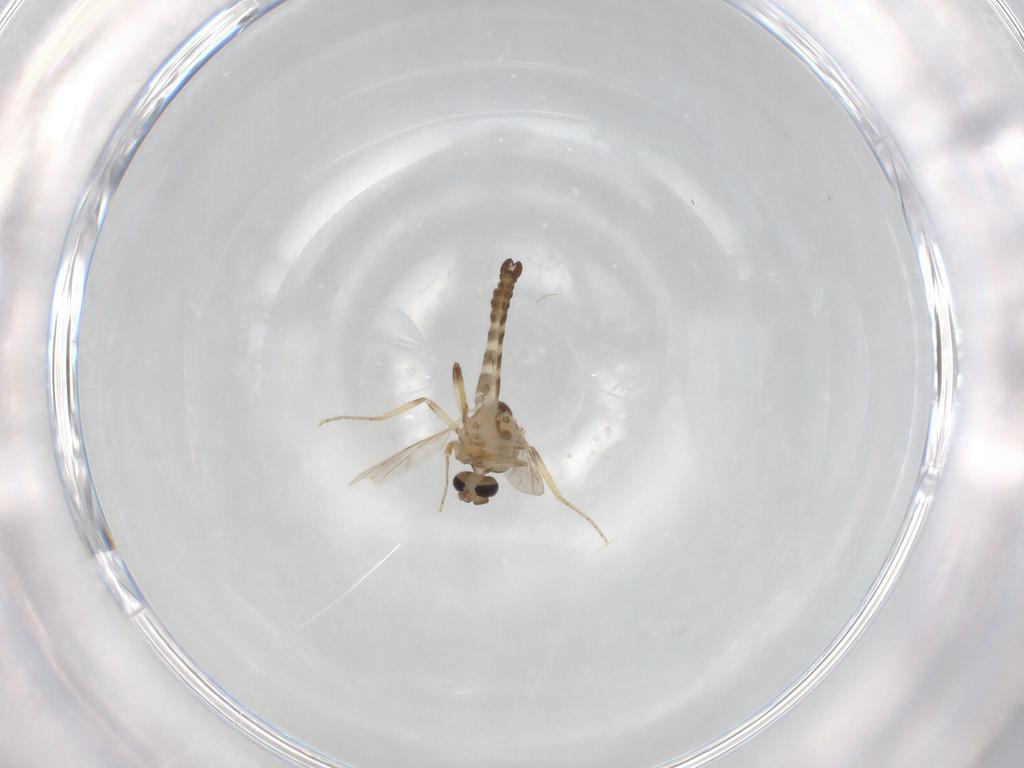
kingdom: Animalia
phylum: Arthropoda
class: Insecta
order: Diptera
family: Ceratopogonidae
